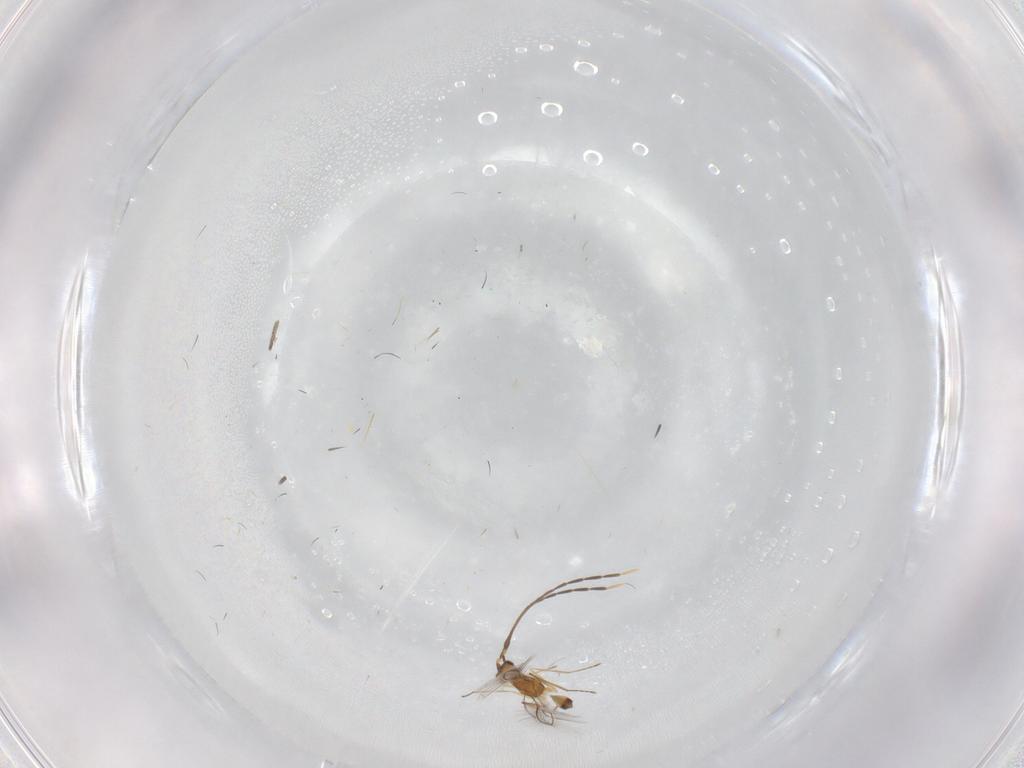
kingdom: Animalia
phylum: Arthropoda
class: Insecta
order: Hymenoptera
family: Mymaridae
